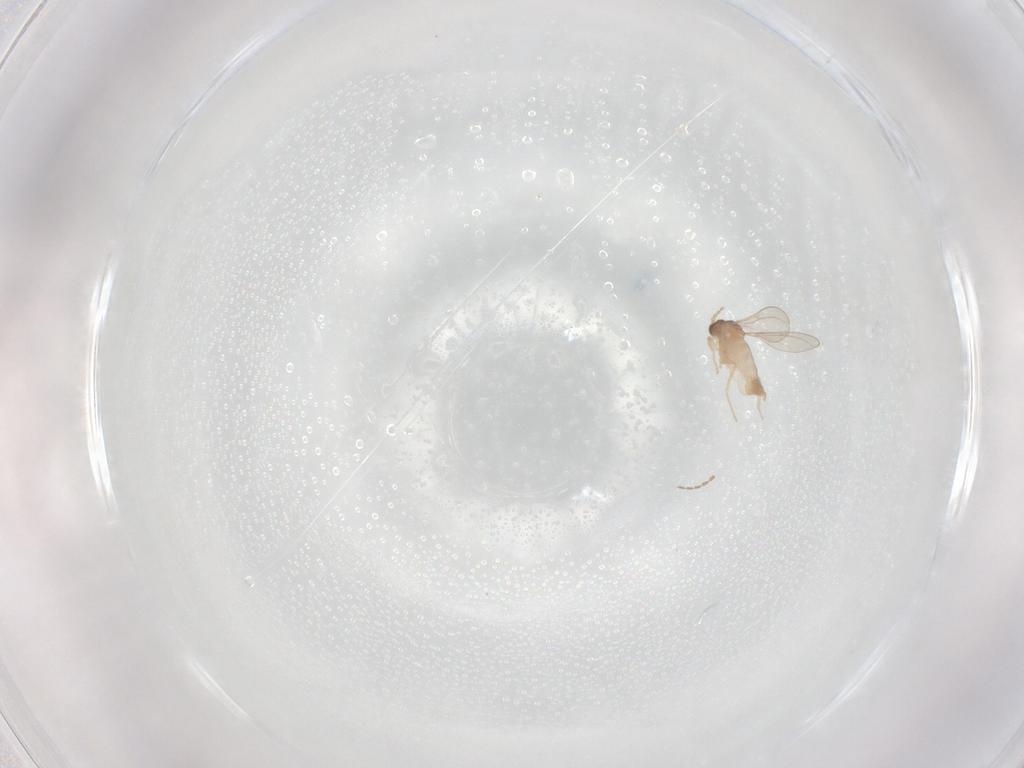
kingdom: Animalia
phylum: Arthropoda
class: Insecta
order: Diptera
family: Cecidomyiidae
